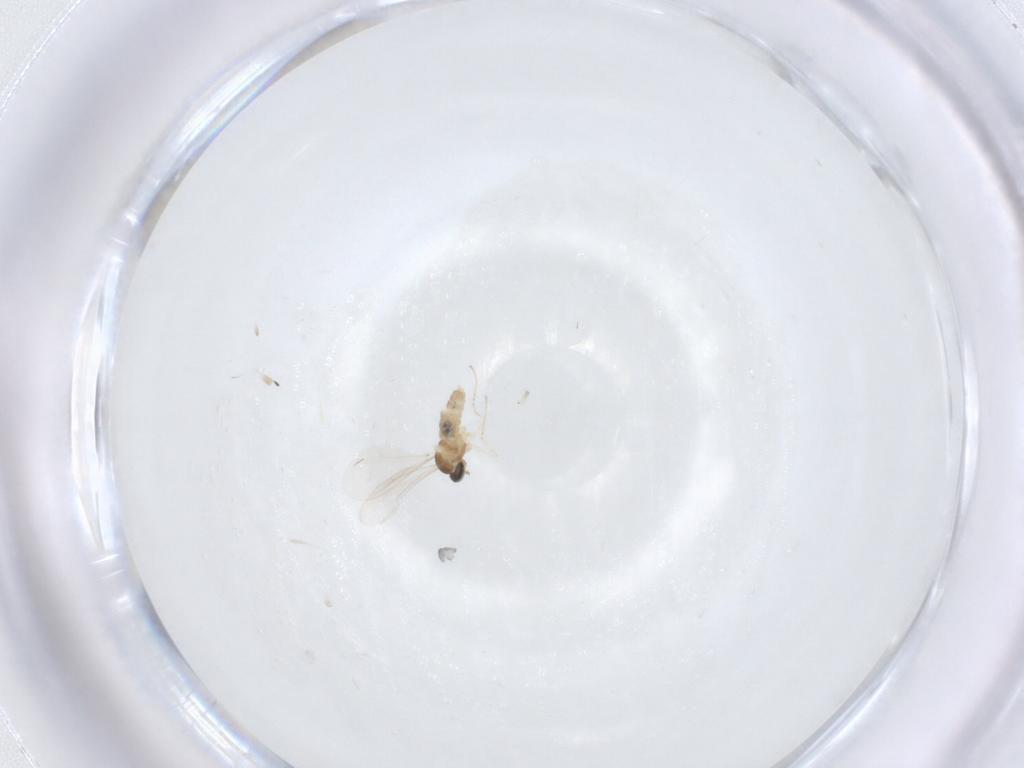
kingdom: Animalia
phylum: Arthropoda
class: Insecta
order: Diptera
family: Cecidomyiidae
